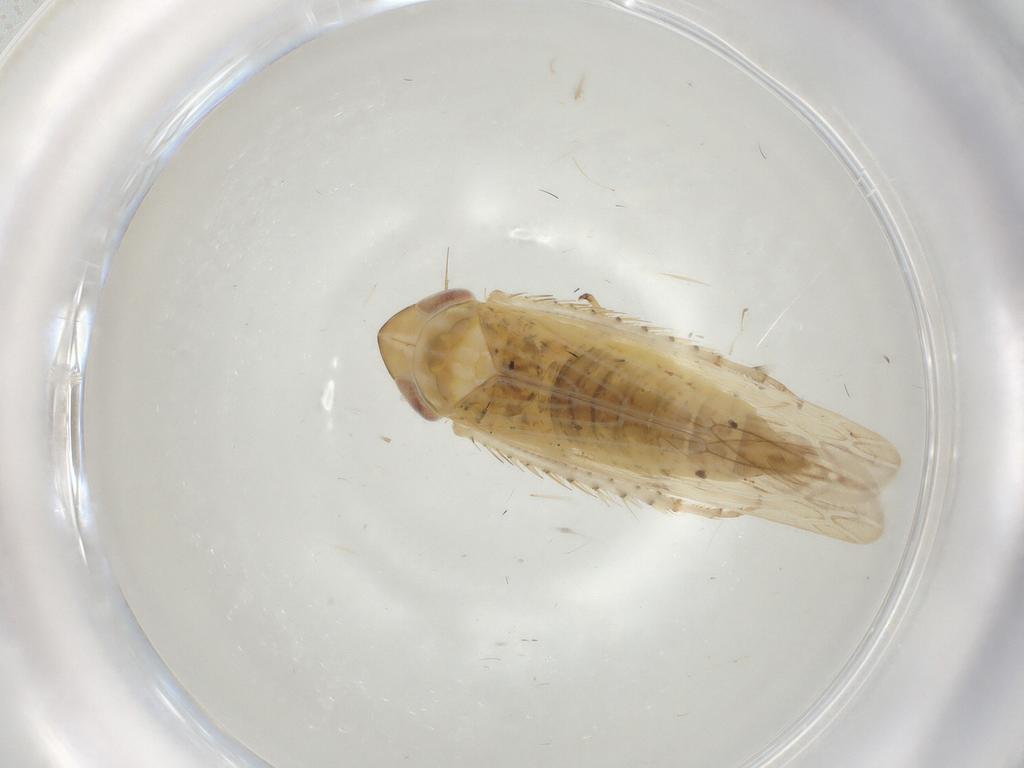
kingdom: Animalia
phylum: Arthropoda
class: Insecta
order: Hemiptera
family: Cicadellidae
